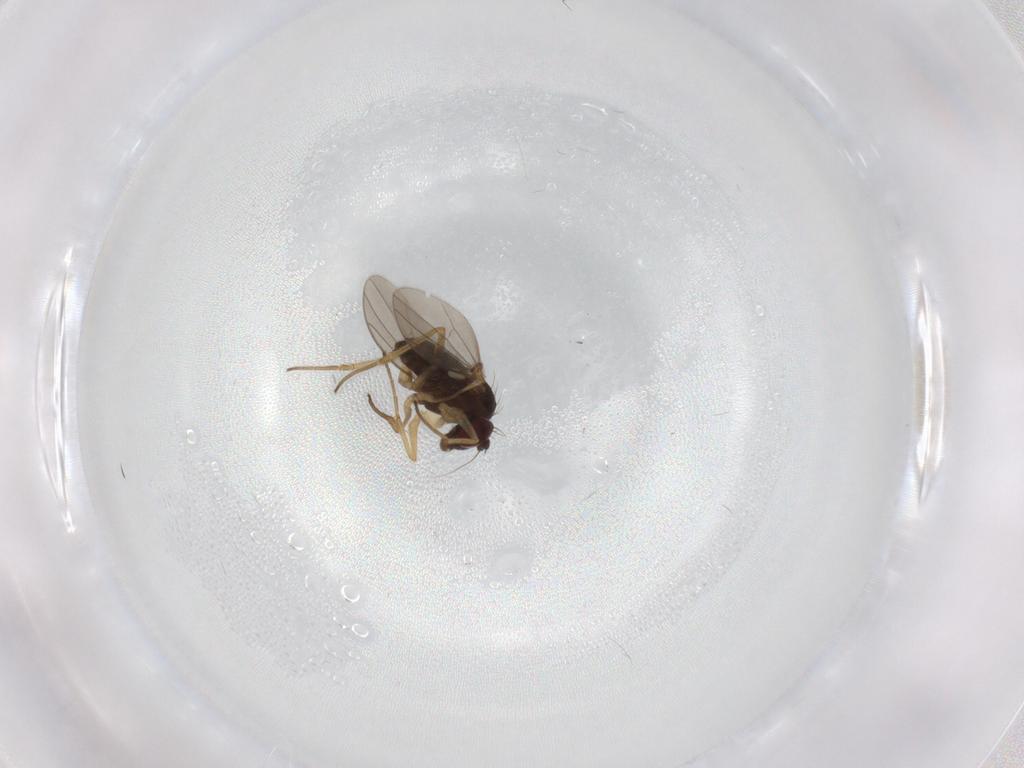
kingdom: Animalia
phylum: Arthropoda
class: Insecta
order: Diptera
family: Dolichopodidae
